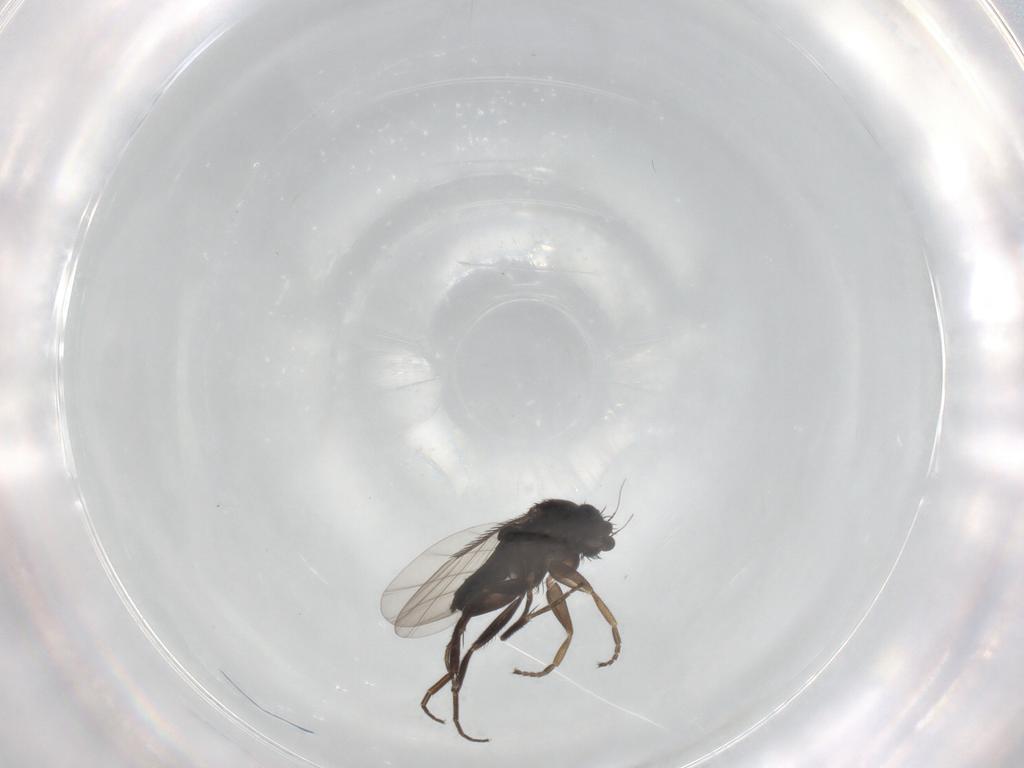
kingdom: Animalia
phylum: Arthropoda
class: Insecta
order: Diptera
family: Phoridae
